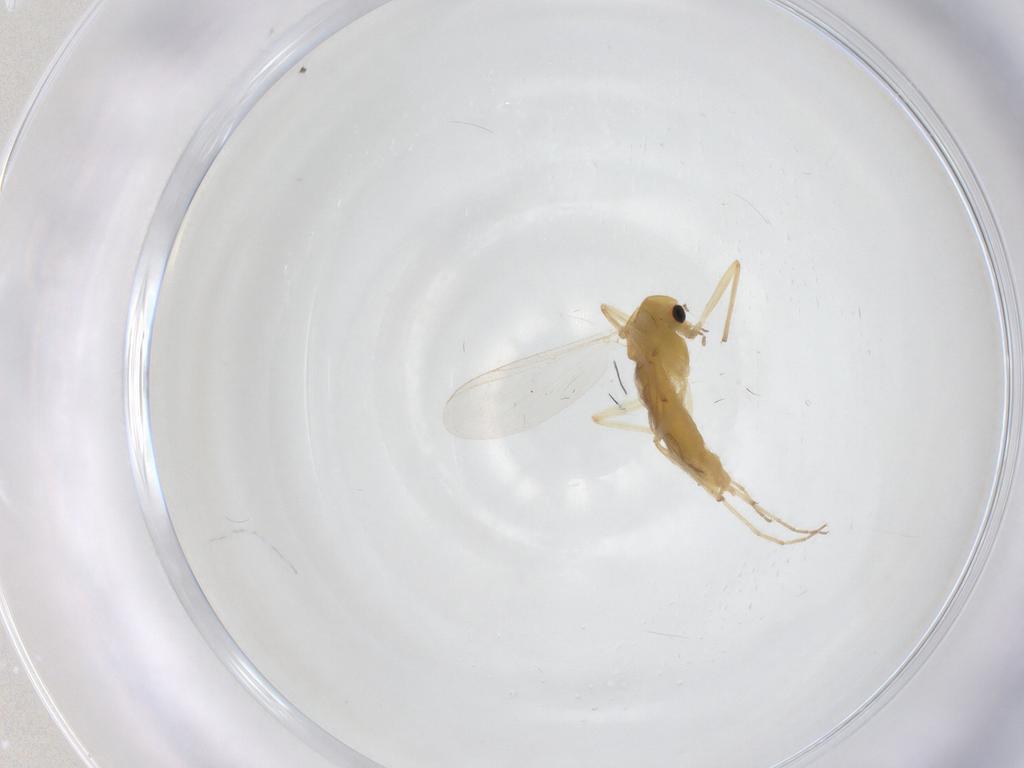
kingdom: Animalia
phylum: Arthropoda
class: Insecta
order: Diptera
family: Chironomidae
